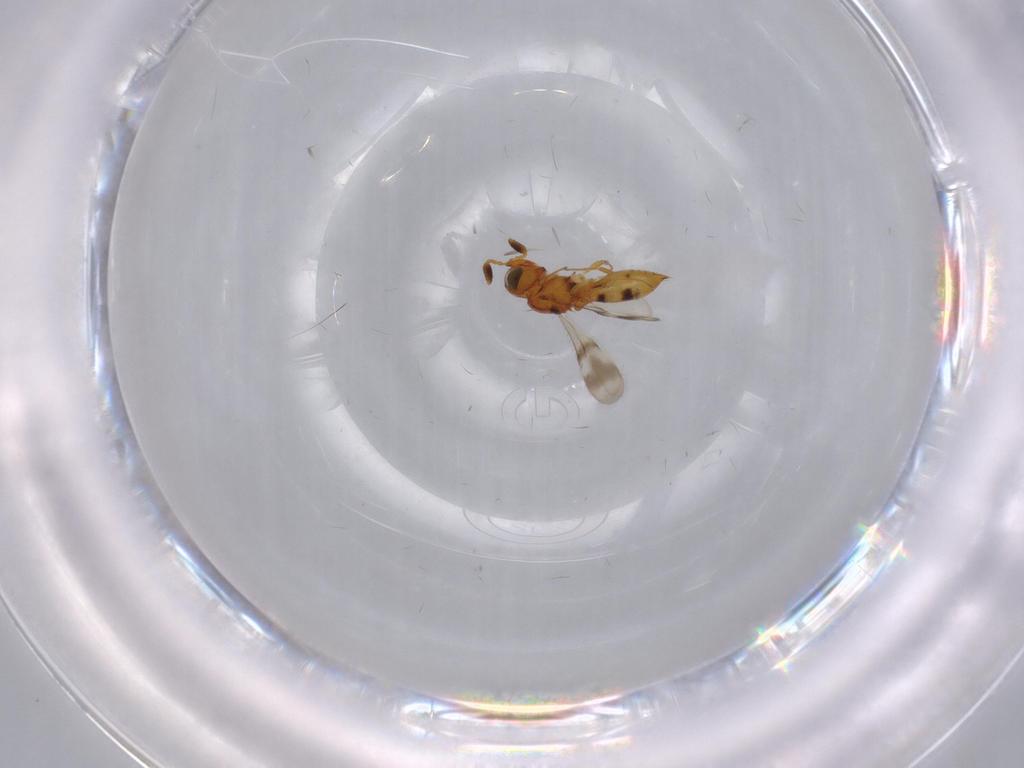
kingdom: Animalia
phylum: Arthropoda
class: Insecta
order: Hymenoptera
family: Scelionidae
